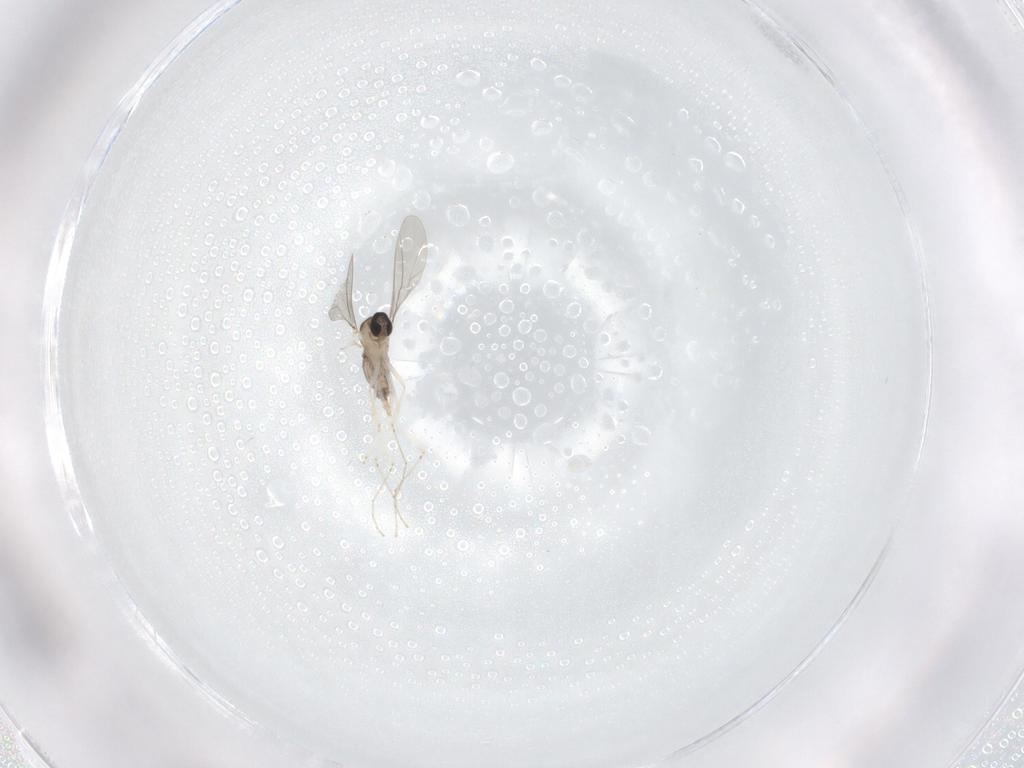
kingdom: Animalia
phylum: Arthropoda
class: Insecta
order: Diptera
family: Cecidomyiidae
